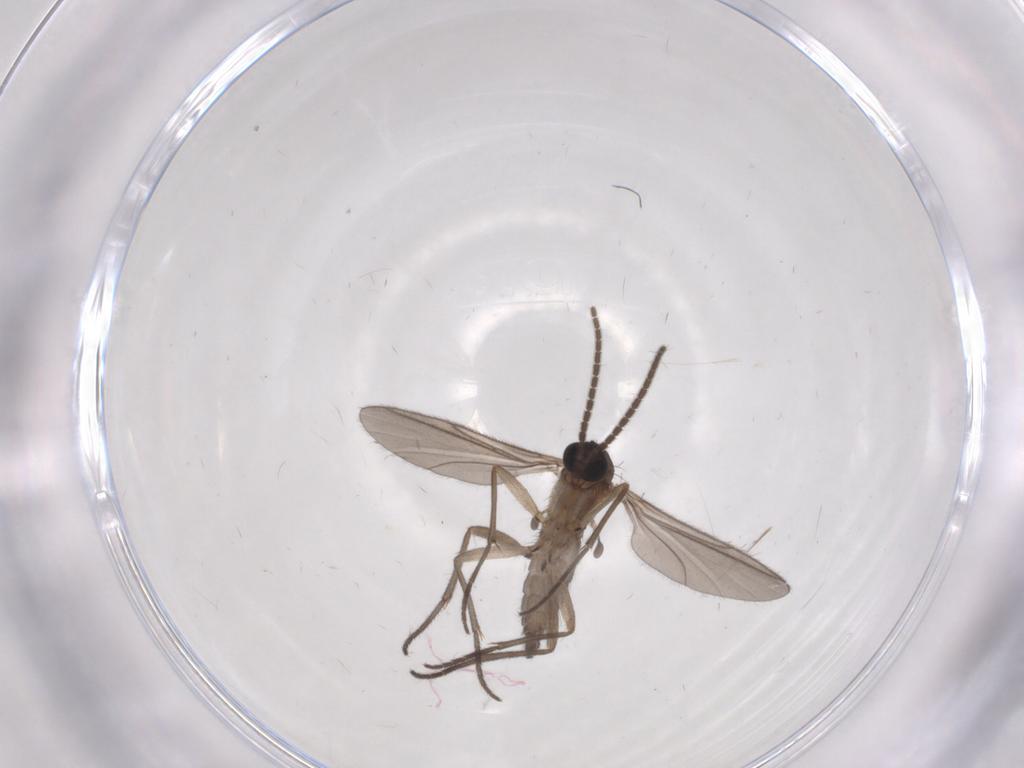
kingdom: Animalia
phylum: Arthropoda
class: Insecta
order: Diptera
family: Sciaridae
